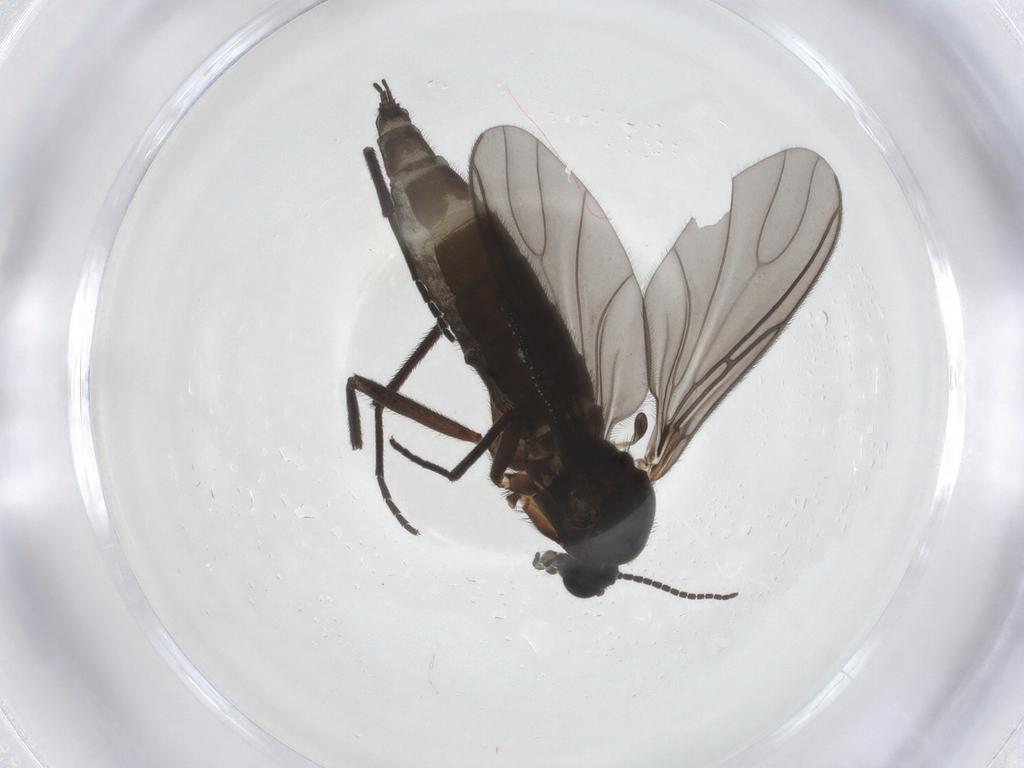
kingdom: Animalia
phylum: Arthropoda
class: Insecta
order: Diptera
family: Sciaridae
